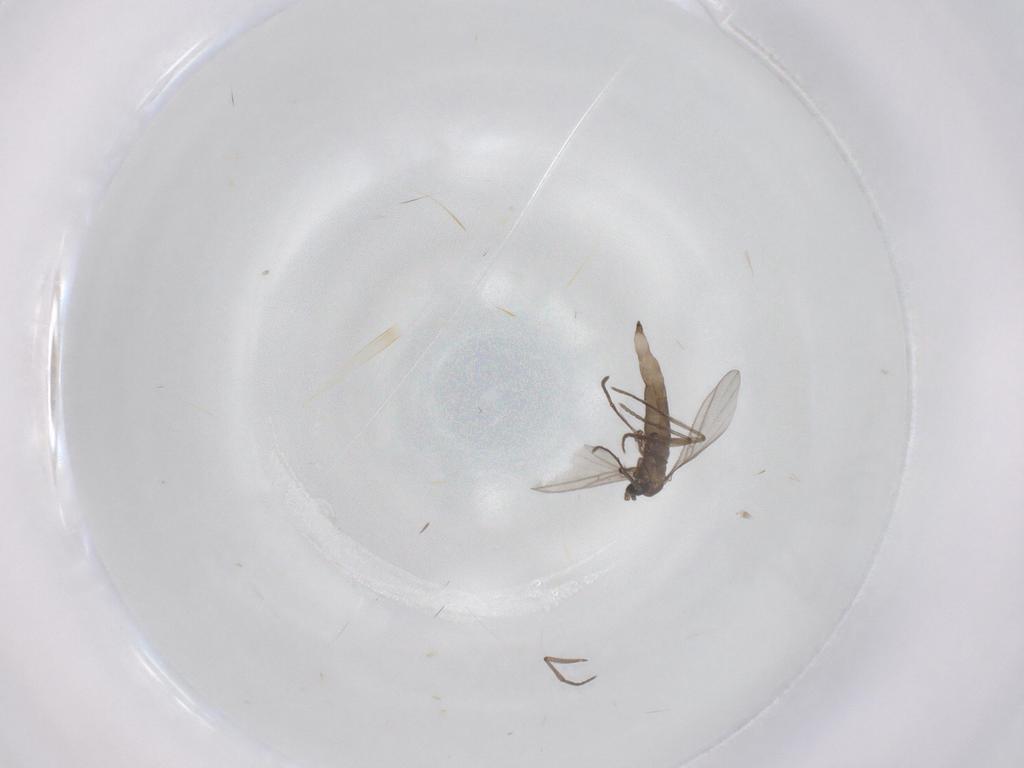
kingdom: Animalia
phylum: Arthropoda
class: Insecta
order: Diptera
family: Sciaridae
